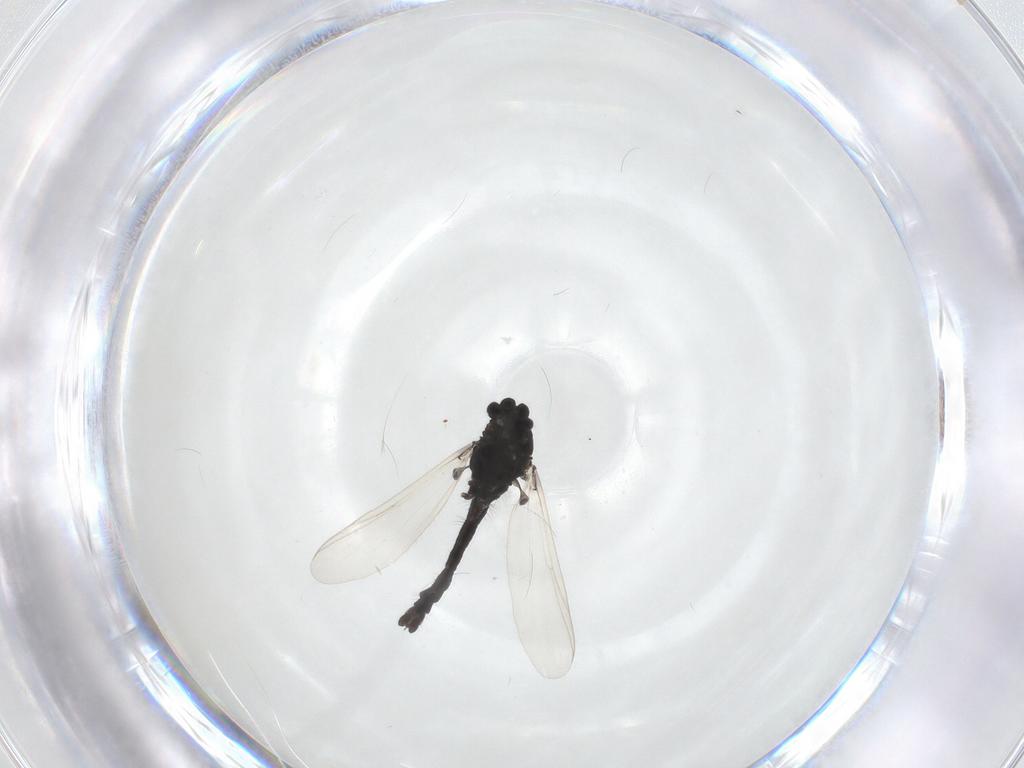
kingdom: Animalia
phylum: Arthropoda
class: Insecta
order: Diptera
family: Chironomidae
